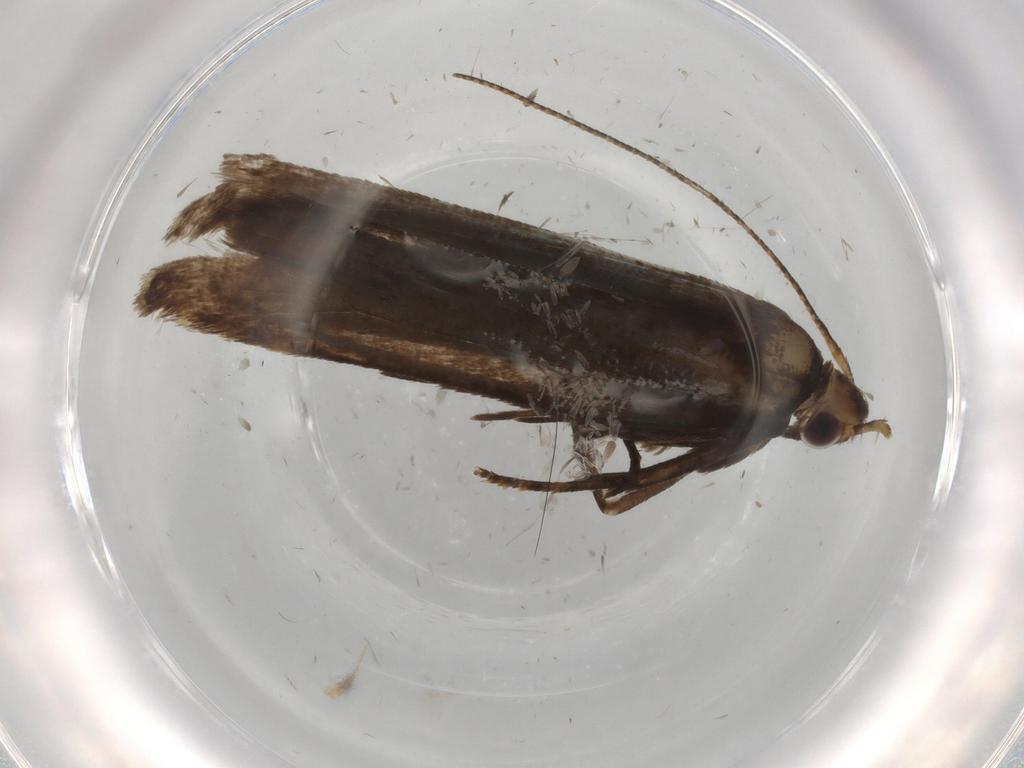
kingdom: Animalia
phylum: Arthropoda
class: Insecta
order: Lepidoptera
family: Gelechiidae
